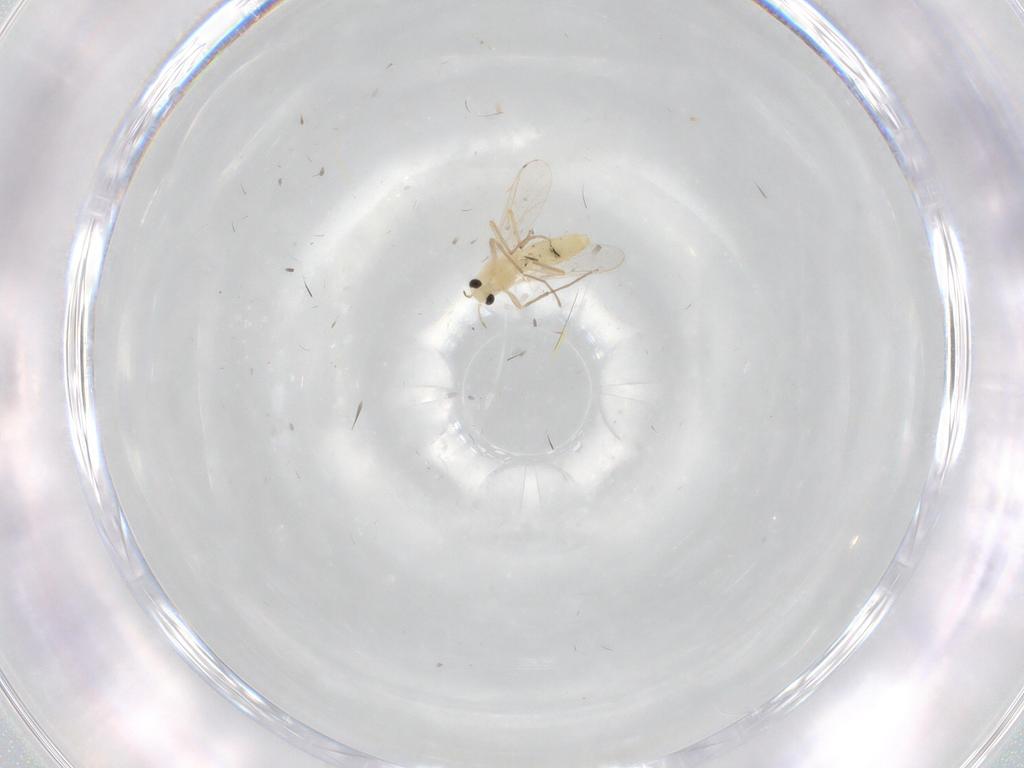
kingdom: Animalia
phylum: Arthropoda
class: Insecta
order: Diptera
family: Chironomidae
